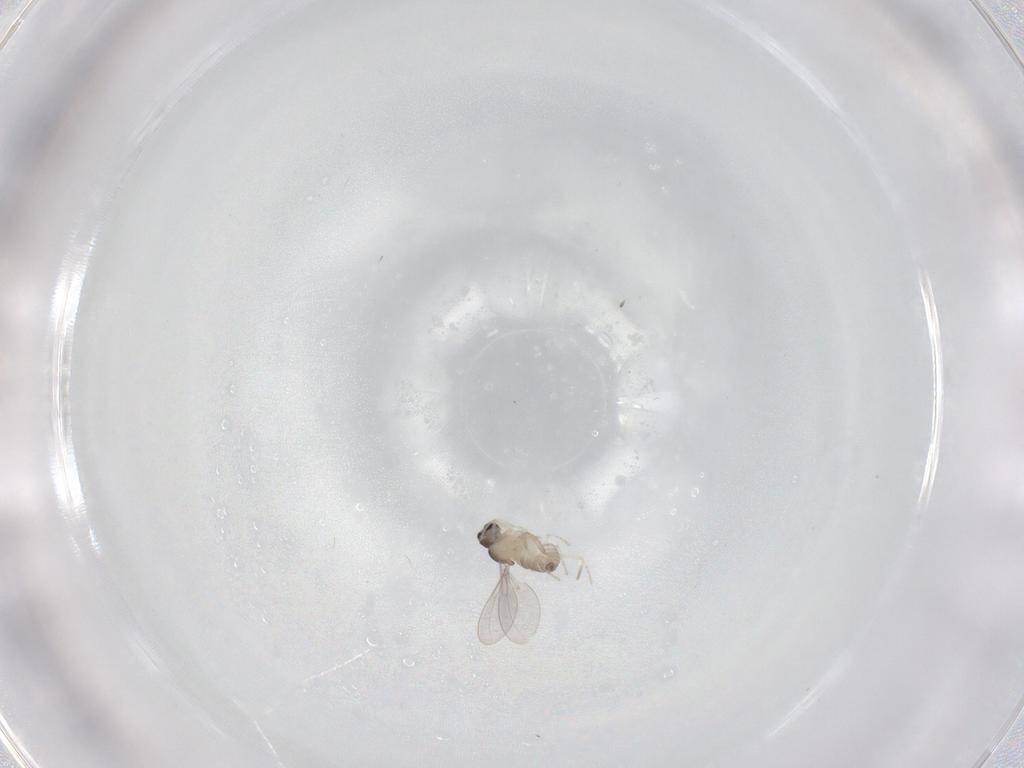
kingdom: Animalia
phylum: Arthropoda
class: Insecta
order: Diptera
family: Cecidomyiidae
